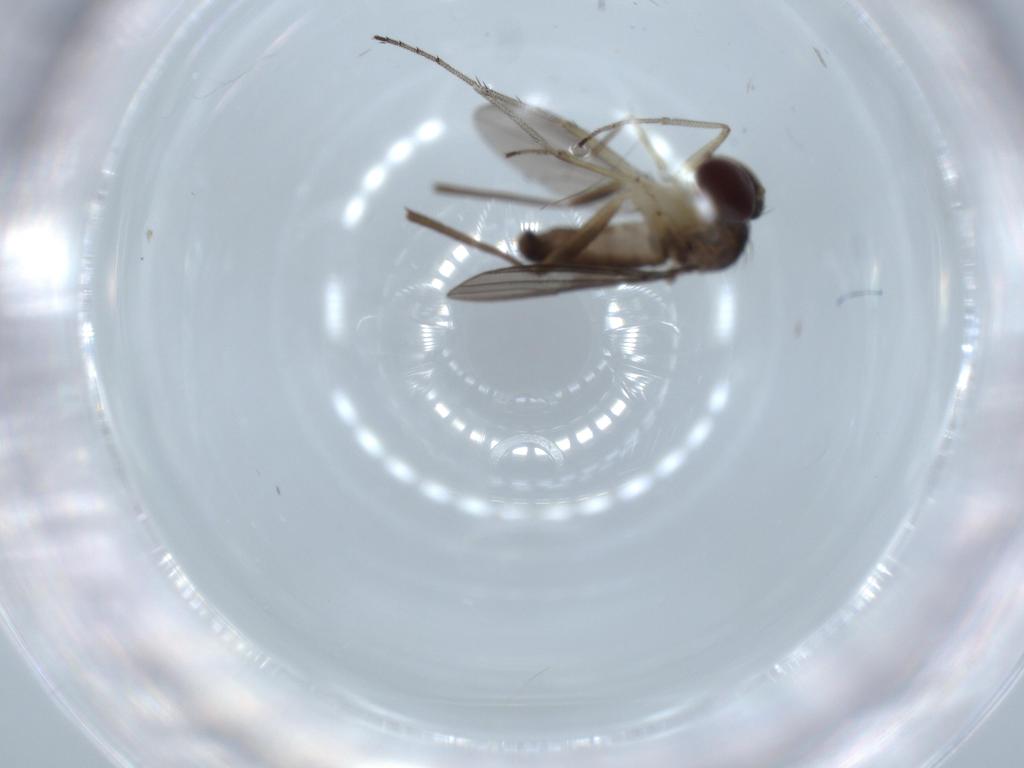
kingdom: Animalia
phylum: Arthropoda
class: Insecta
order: Diptera
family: Dolichopodidae
